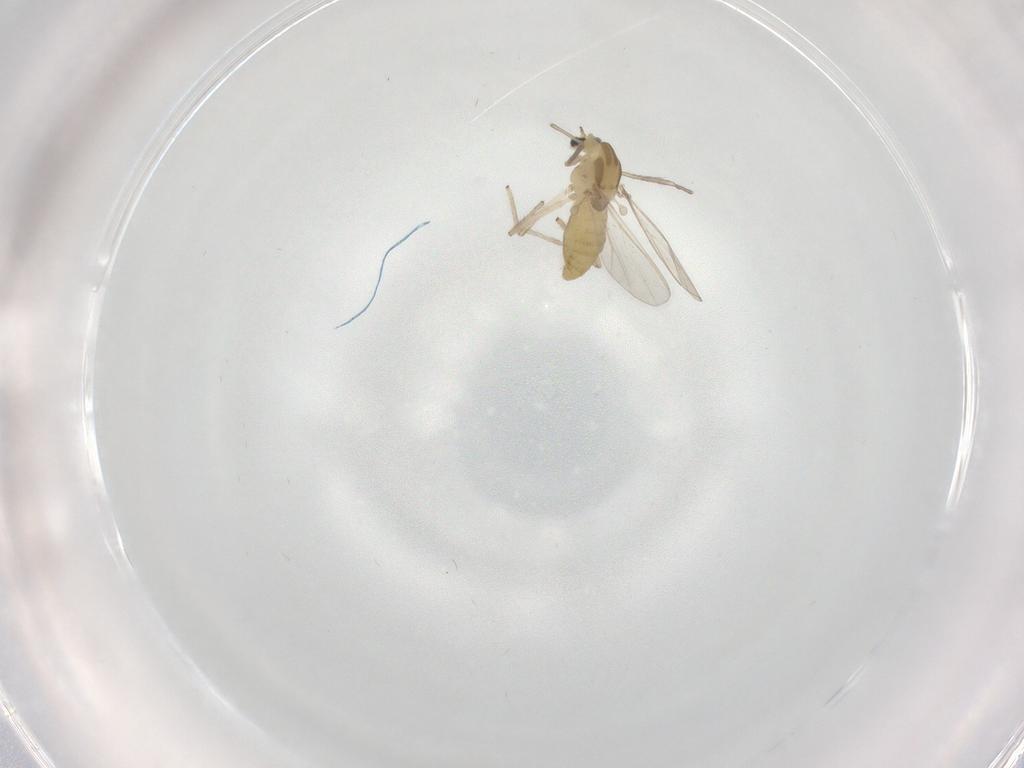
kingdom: Animalia
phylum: Arthropoda
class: Insecta
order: Diptera
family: Chironomidae
